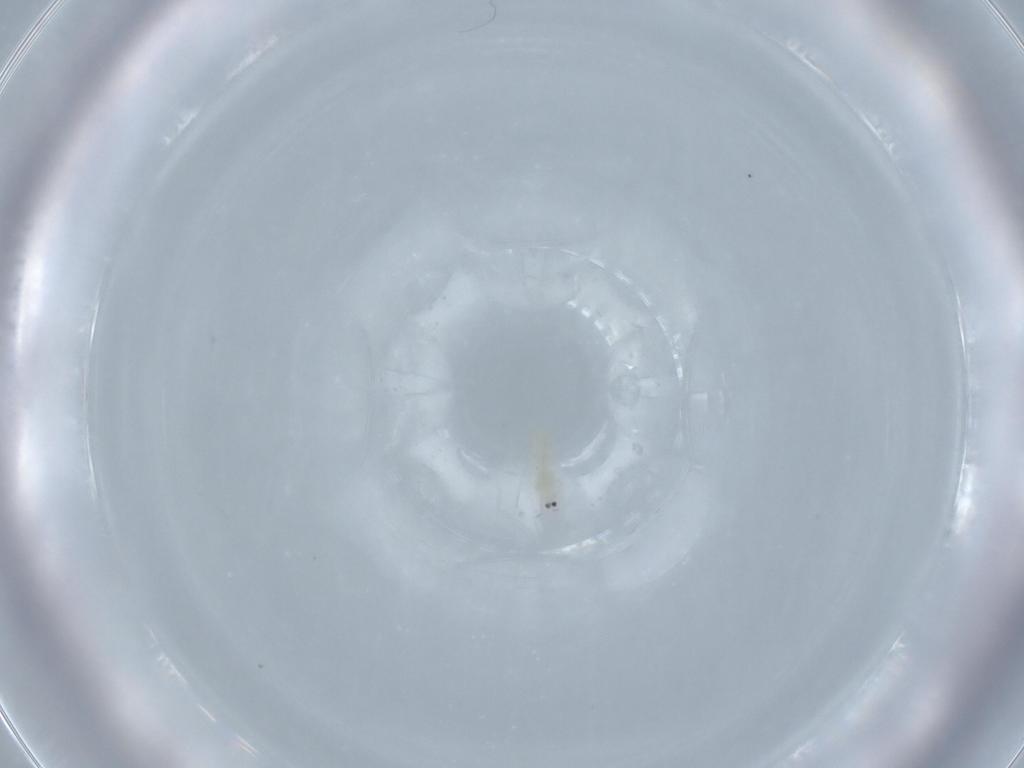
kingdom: Animalia
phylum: Arthropoda
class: Insecta
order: Thysanoptera
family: Thripidae
